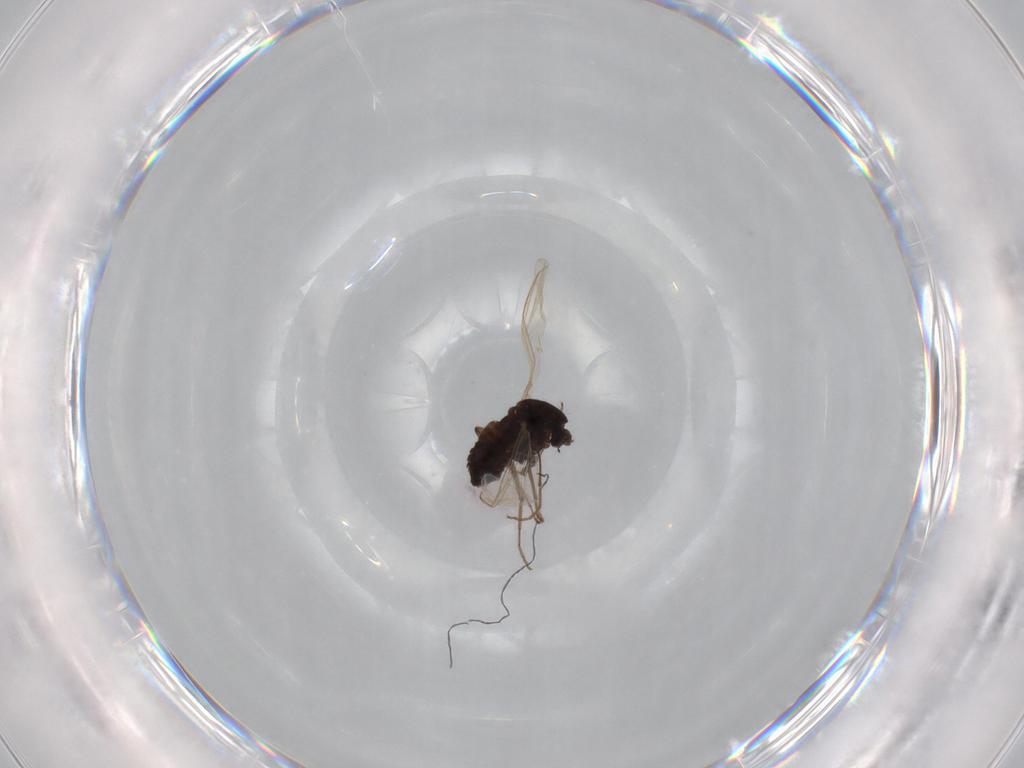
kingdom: Animalia
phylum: Arthropoda
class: Insecta
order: Diptera
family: Chironomidae
